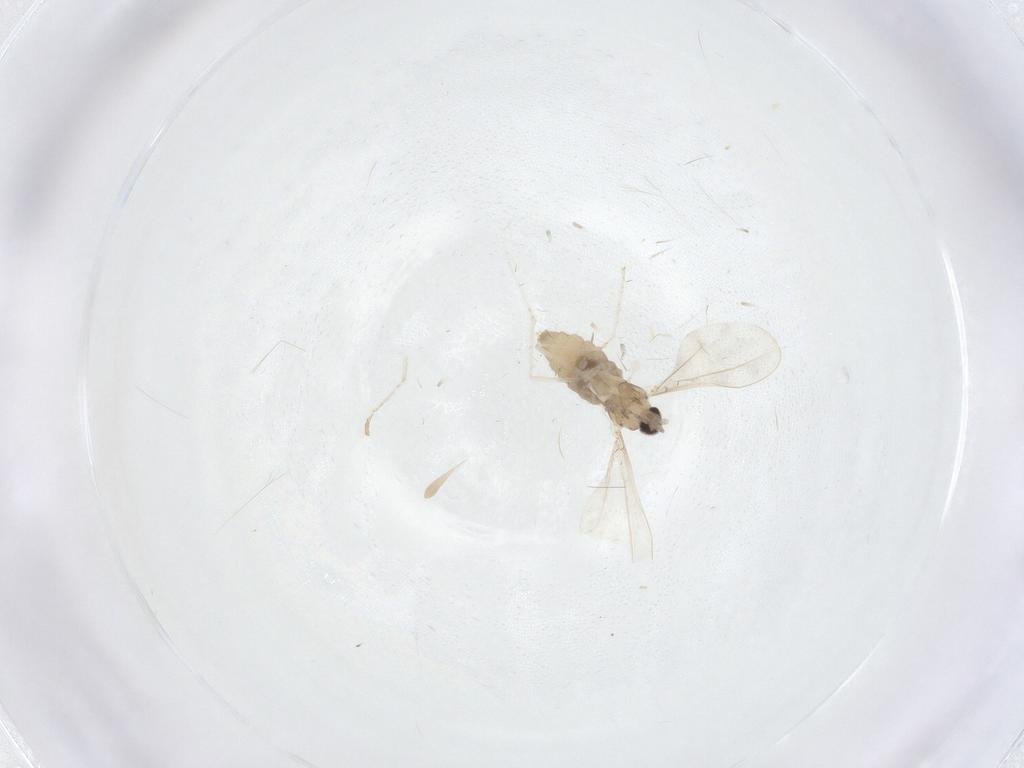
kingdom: Animalia
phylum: Arthropoda
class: Insecta
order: Diptera
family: Cecidomyiidae
